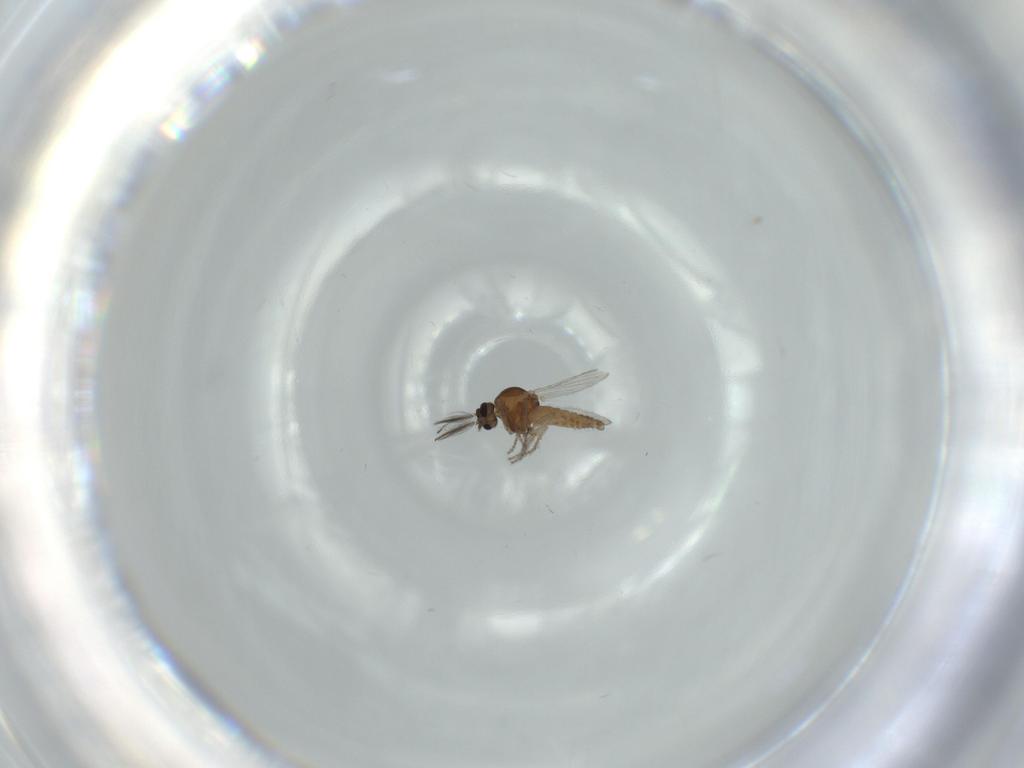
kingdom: Animalia
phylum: Arthropoda
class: Insecta
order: Diptera
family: Ceratopogonidae
